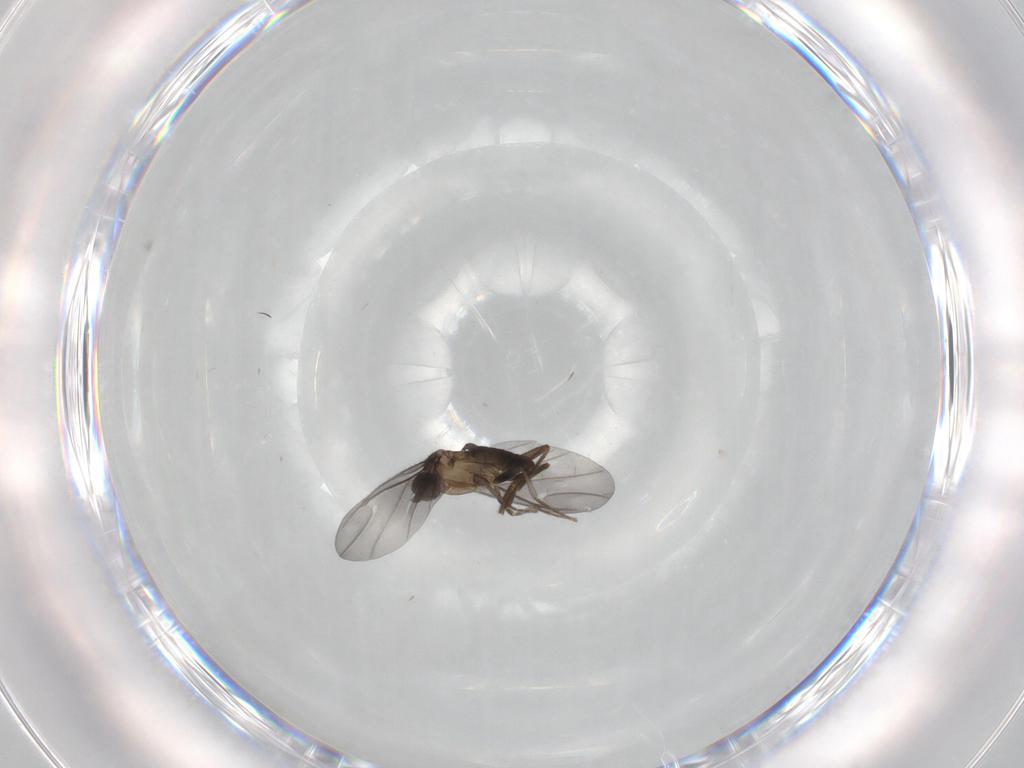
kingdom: Animalia
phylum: Arthropoda
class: Insecta
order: Diptera
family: Phoridae
